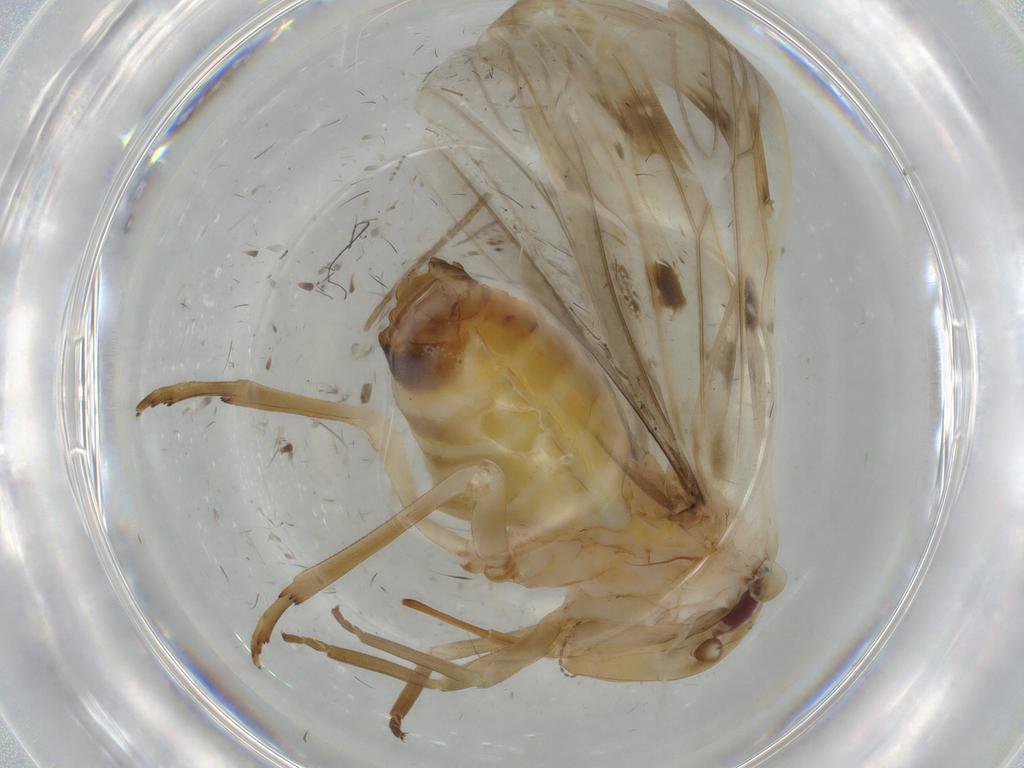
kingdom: Animalia
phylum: Arthropoda
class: Insecta
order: Hemiptera
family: Achilidae
